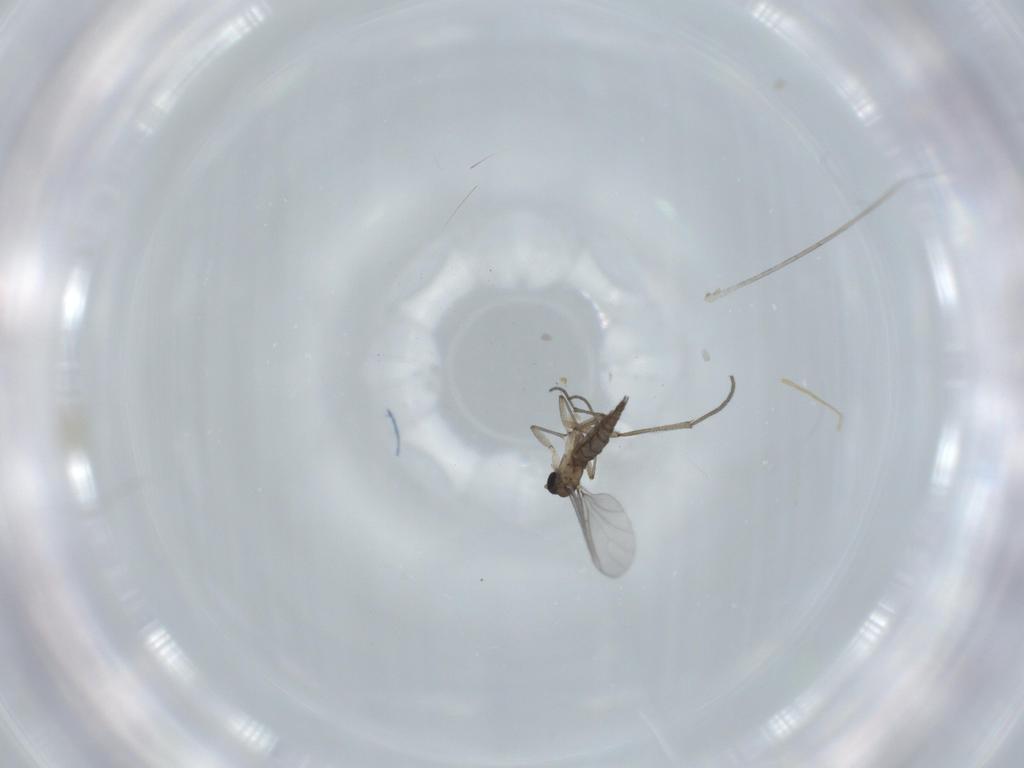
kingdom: Animalia
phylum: Arthropoda
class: Insecta
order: Diptera
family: Sciaridae
